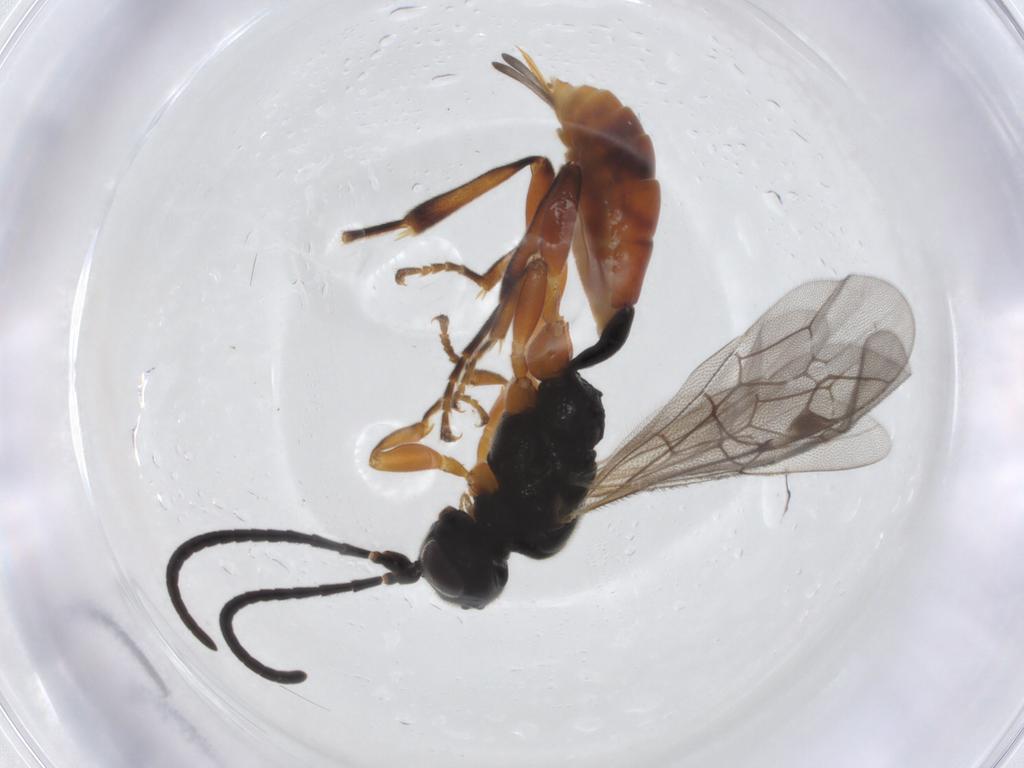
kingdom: Animalia
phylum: Arthropoda
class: Insecta
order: Hymenoptera
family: Ichneumonidae
